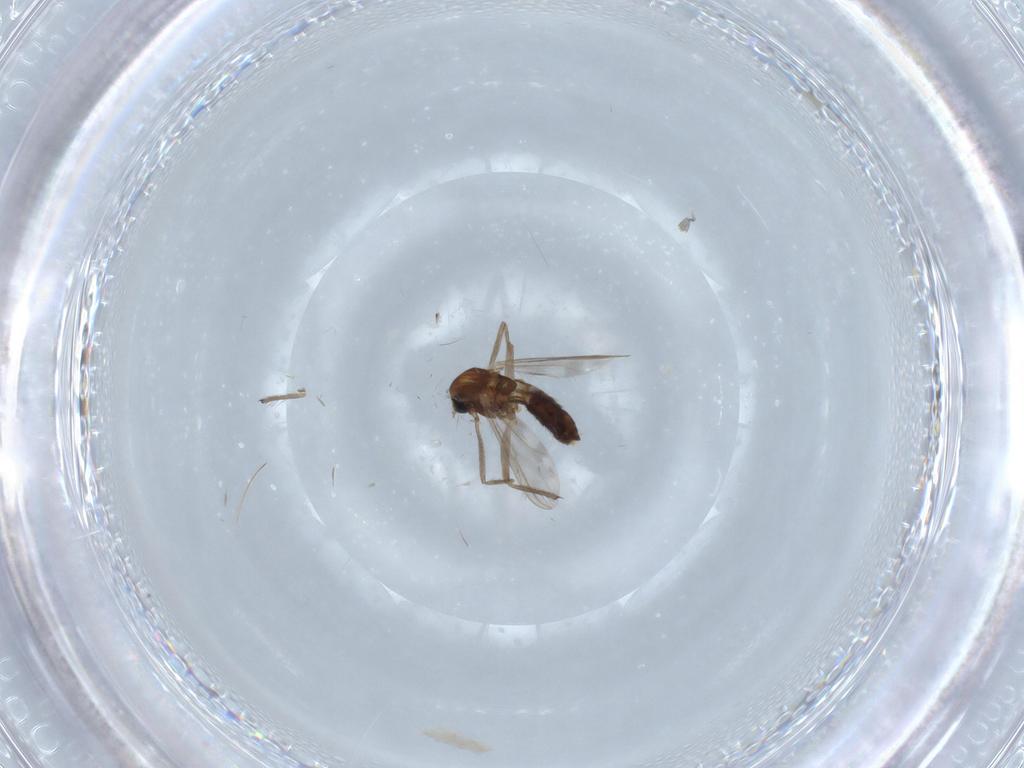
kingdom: Animalia
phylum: Arthropoda
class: Insecta
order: Diptera
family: Chironomidae
